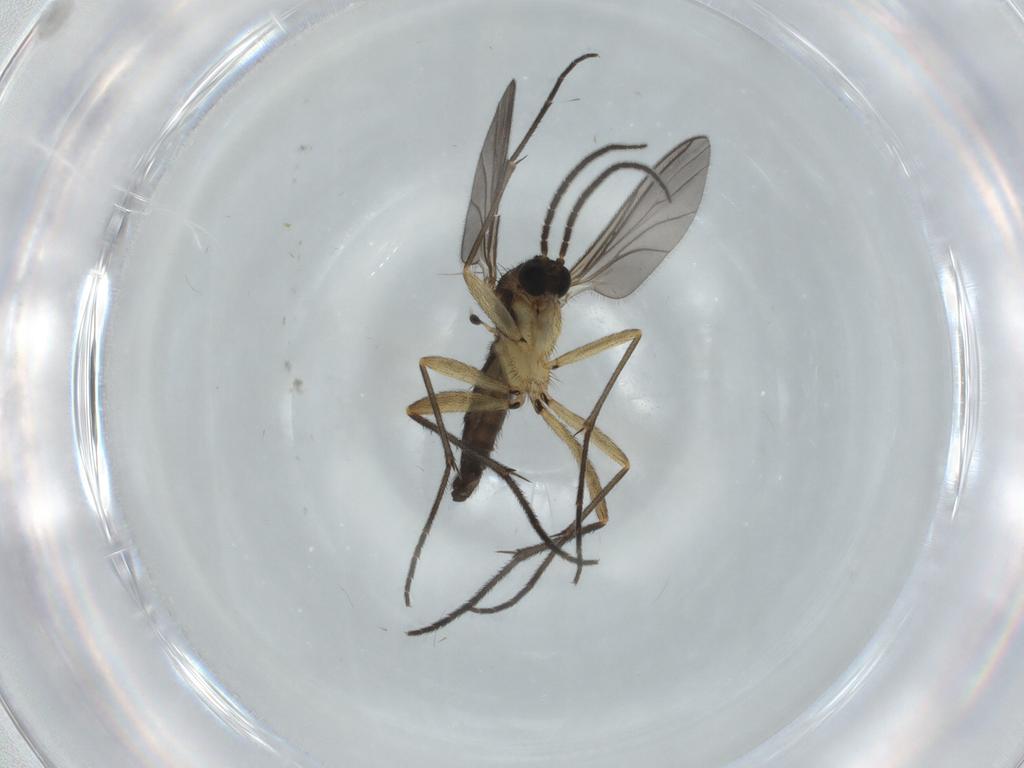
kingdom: Animalia
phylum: Arthropoda
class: Insecta
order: Diptera
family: Sciaridae
